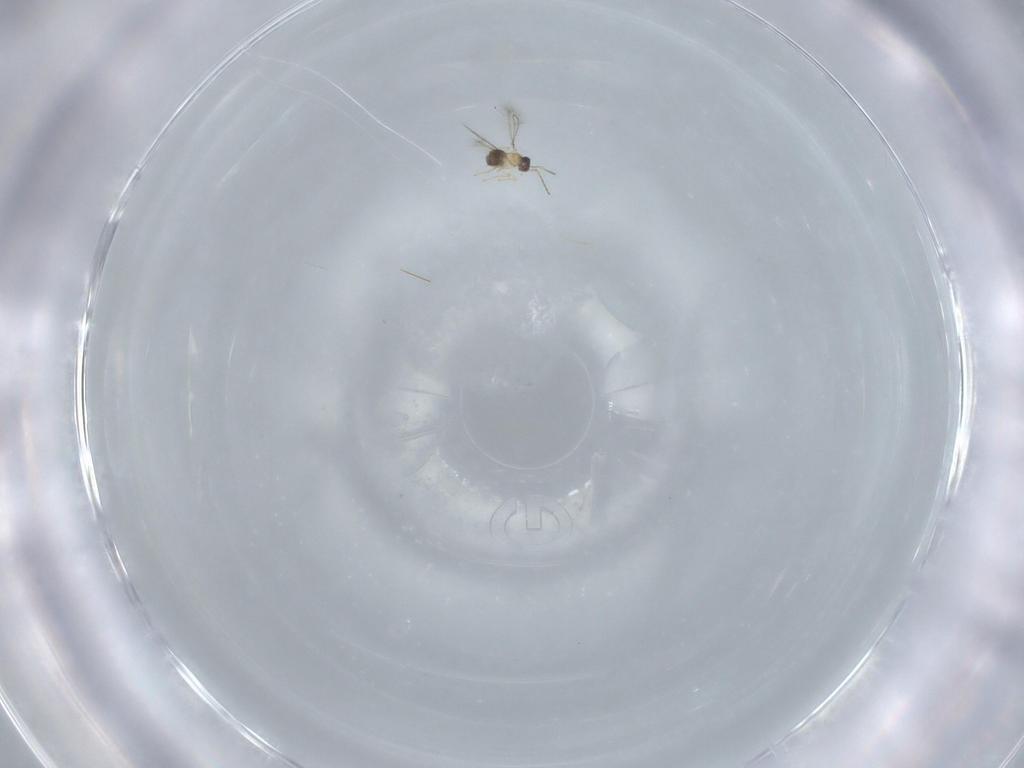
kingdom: Animalia
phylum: Arthropoda
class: Insecta
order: Hymenoptera
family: Mymaridae
